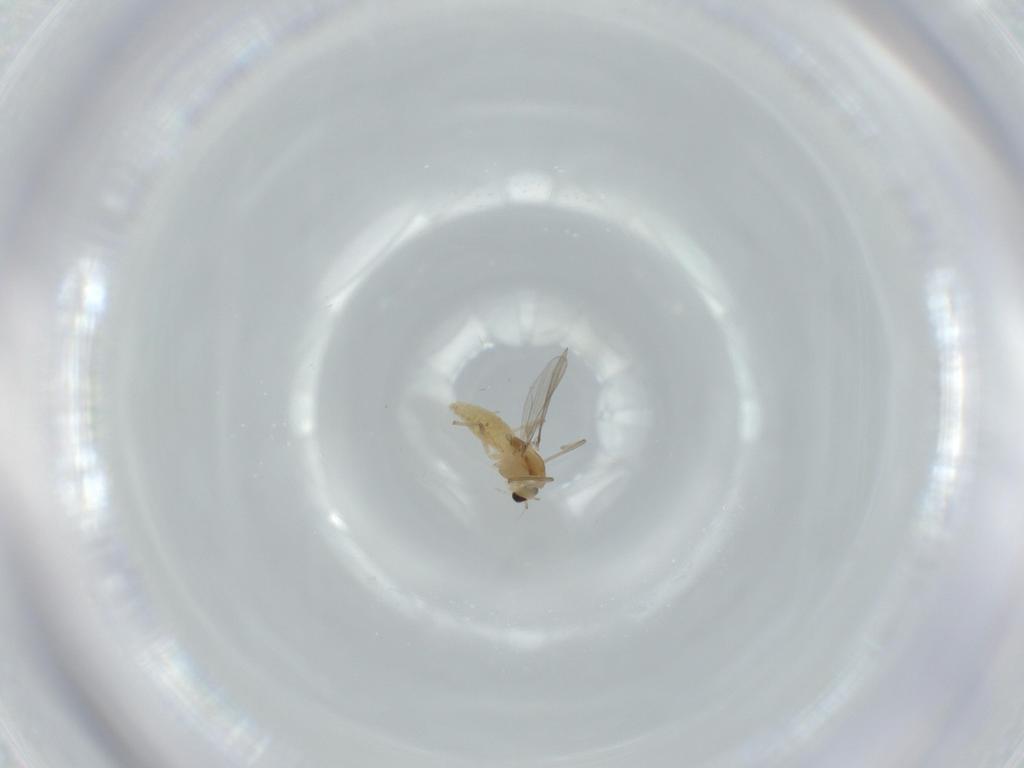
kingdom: Animalia
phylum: Arthropoda
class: Insecta
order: Diptera
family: Chironomidae
